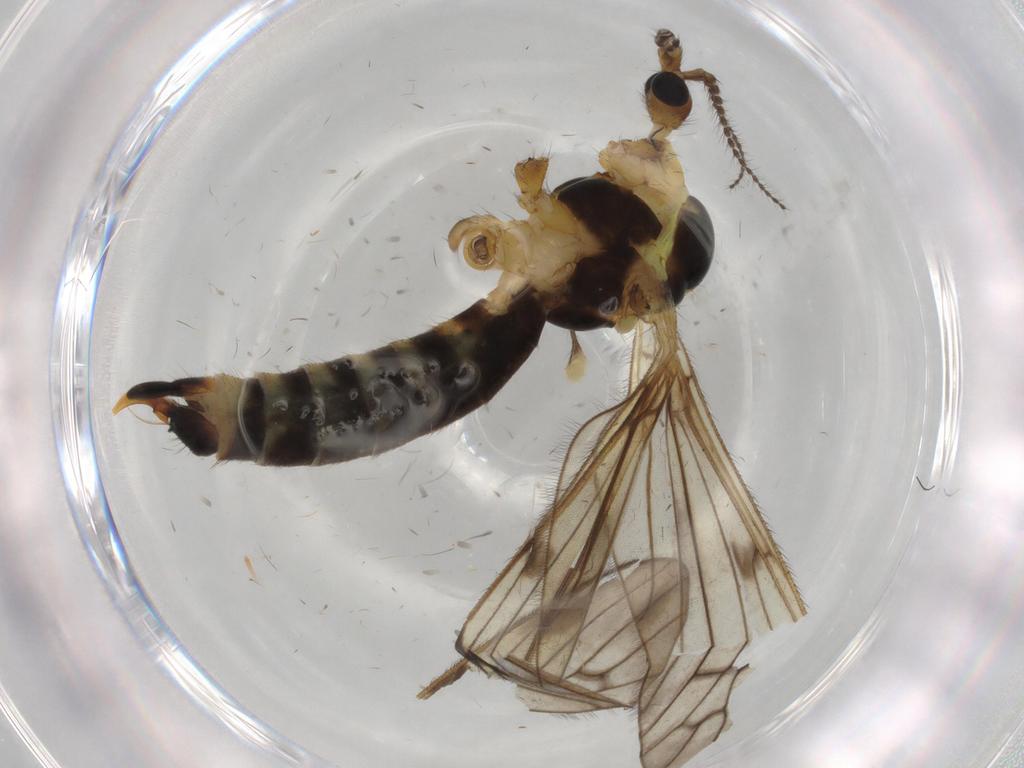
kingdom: Animalia
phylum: Arthropoda
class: Insecta
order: Diptera
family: Limoniidae
